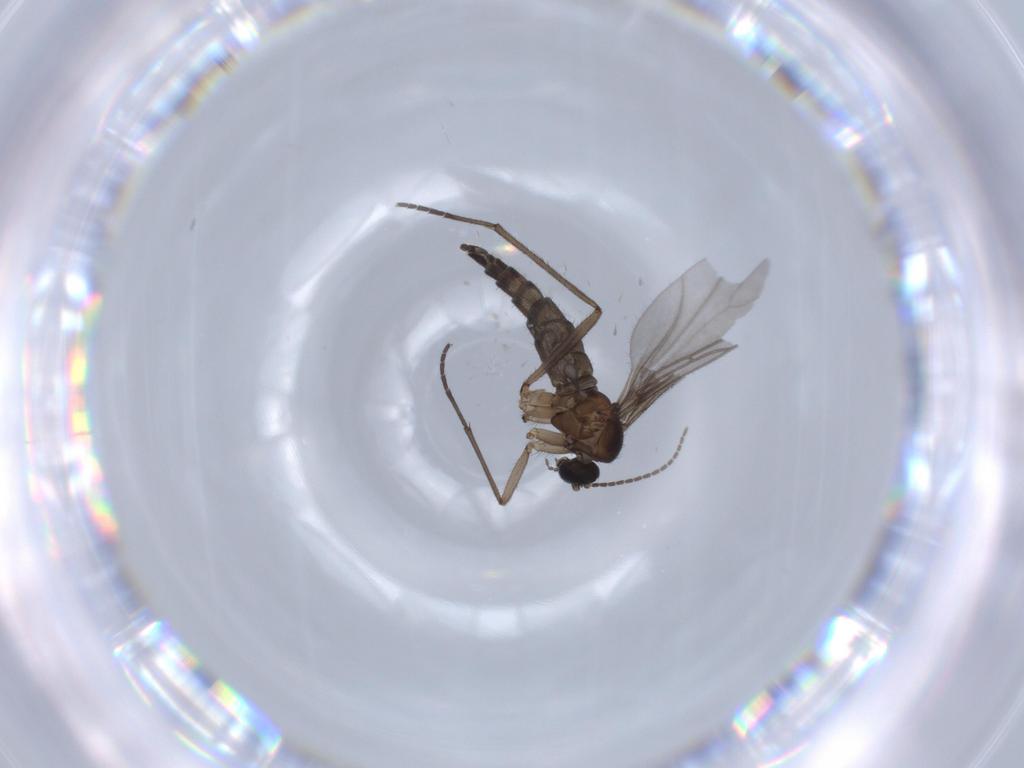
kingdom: Animalia
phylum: Arthropoda
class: Insecta
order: Diptera
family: Sciaridae
